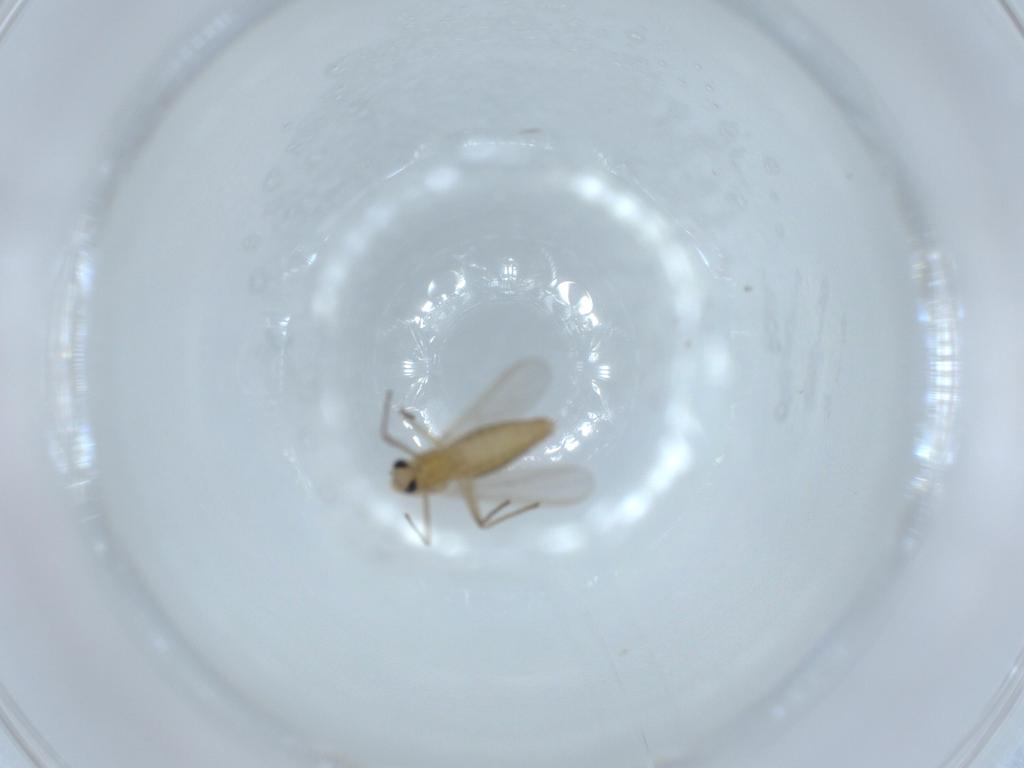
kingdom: Animalia
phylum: Arthropoda
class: Insecta
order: Diptera
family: Chironomidae
